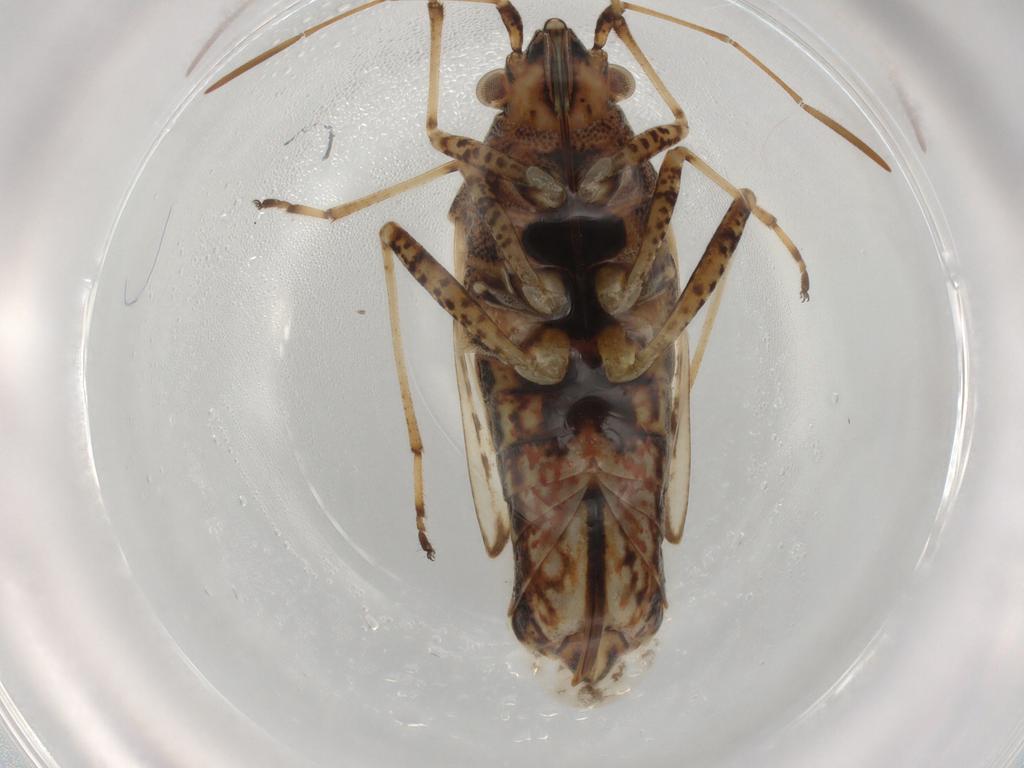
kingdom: Animalia
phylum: Arthropoda
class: Insecta
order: Hemiptera
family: Lygaeidae
